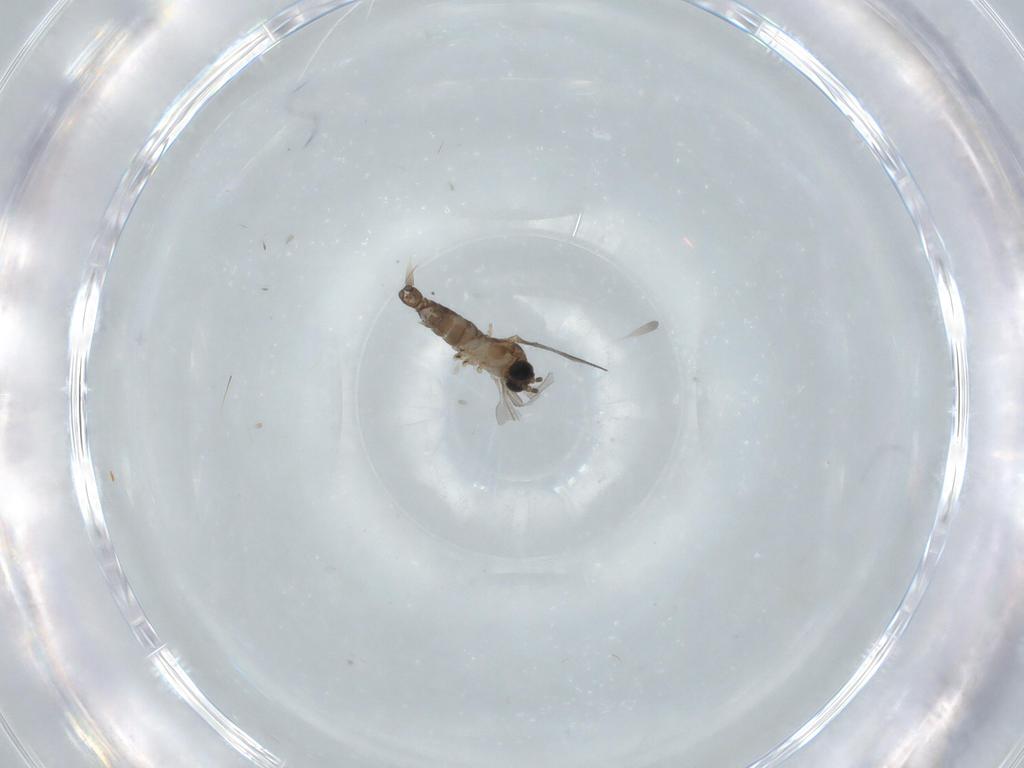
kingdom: Animalia
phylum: Arthropoda
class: Insecta
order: Diptera
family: Sciaridae
